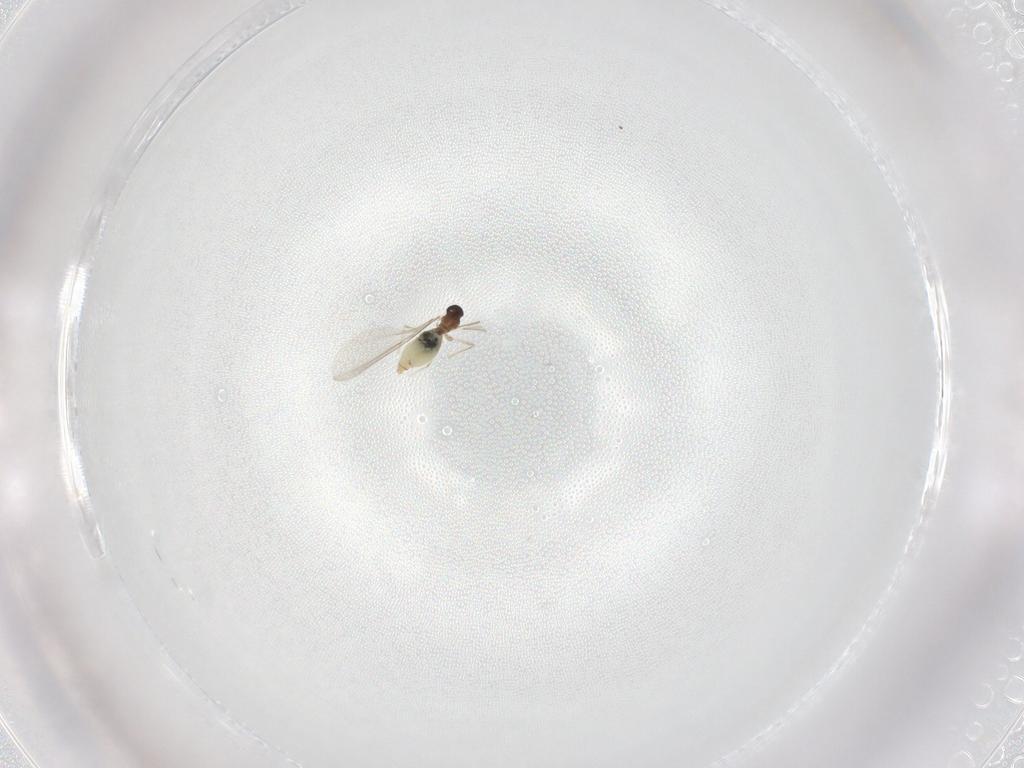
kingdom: Animalia
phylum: Arthropoda
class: Insecta
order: Diptera
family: Cecidomyiidae
